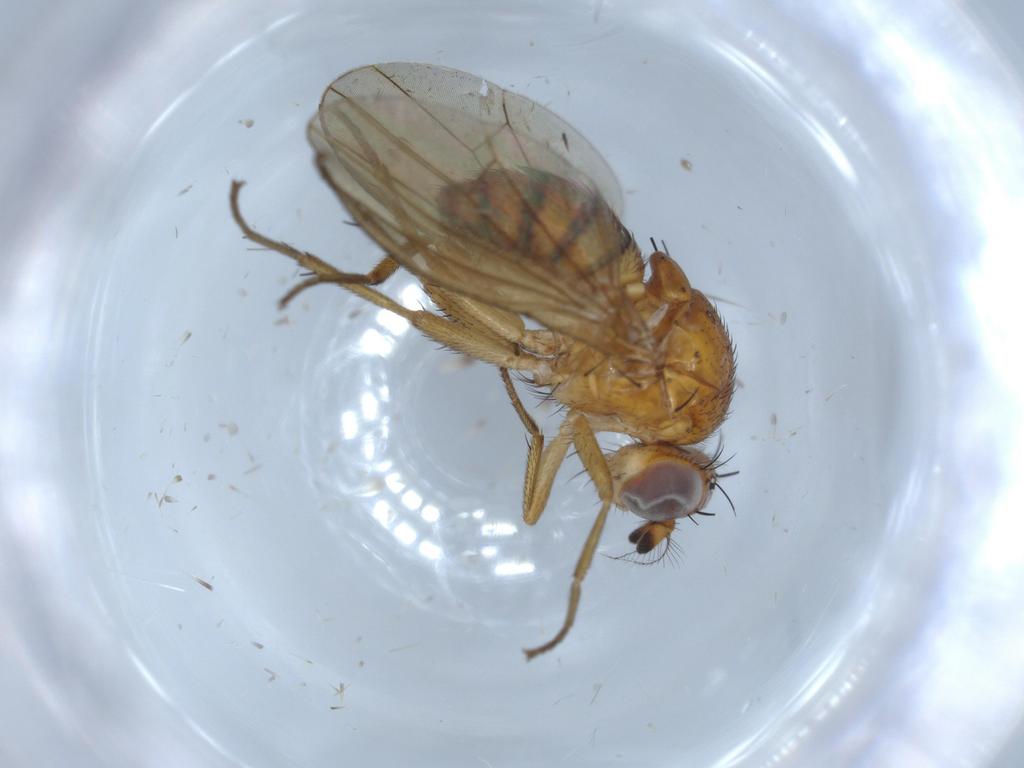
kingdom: Animalia
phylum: Arthropoda
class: Insecta
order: Diptera
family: Lauxaniidae
